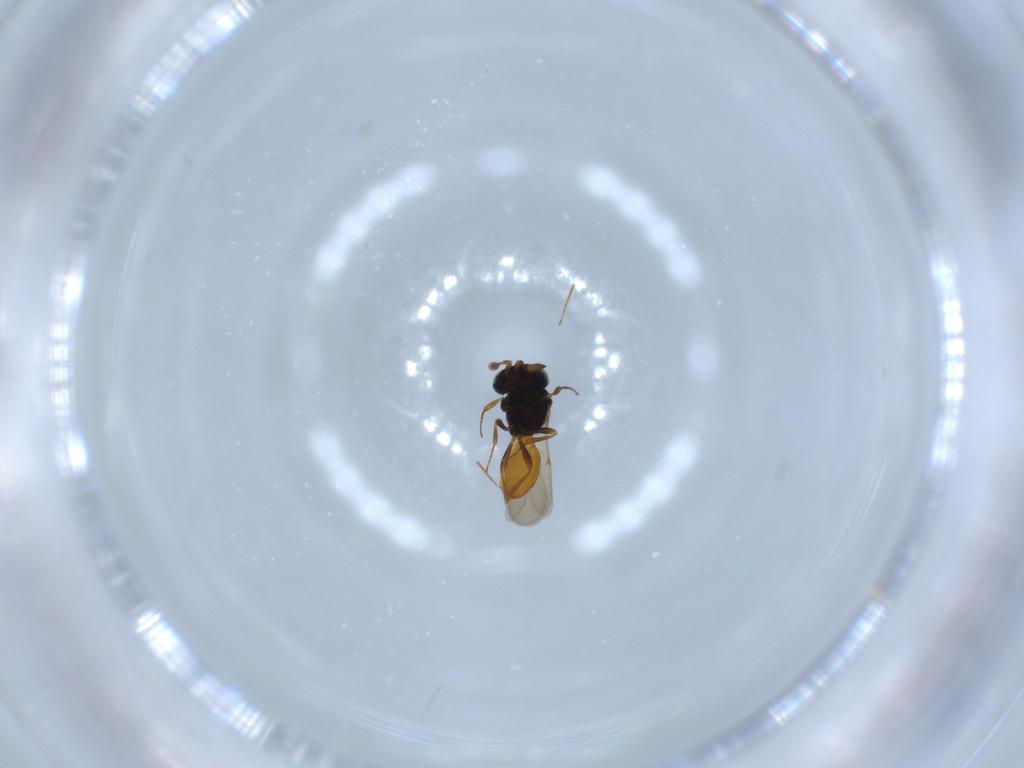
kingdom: Animalia
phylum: Arthropoda
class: Insecta
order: Hymenoptera
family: Scelionidae
